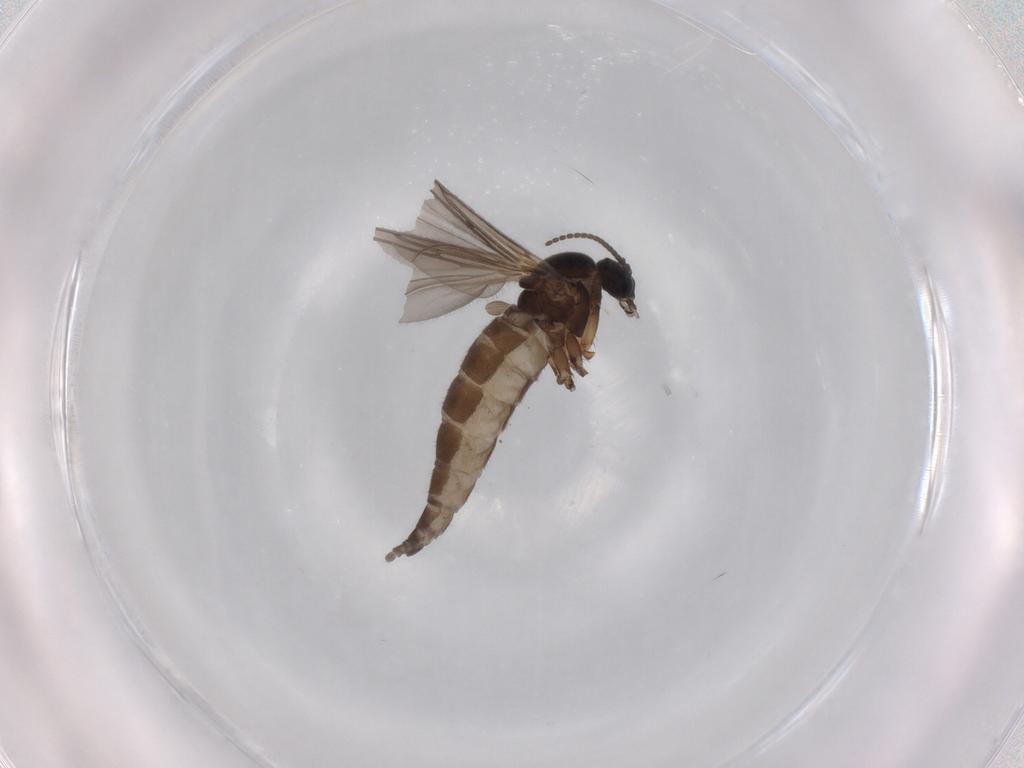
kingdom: Animalia
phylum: Arthropoda
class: Insecta
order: Diptera
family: Sciaridae
